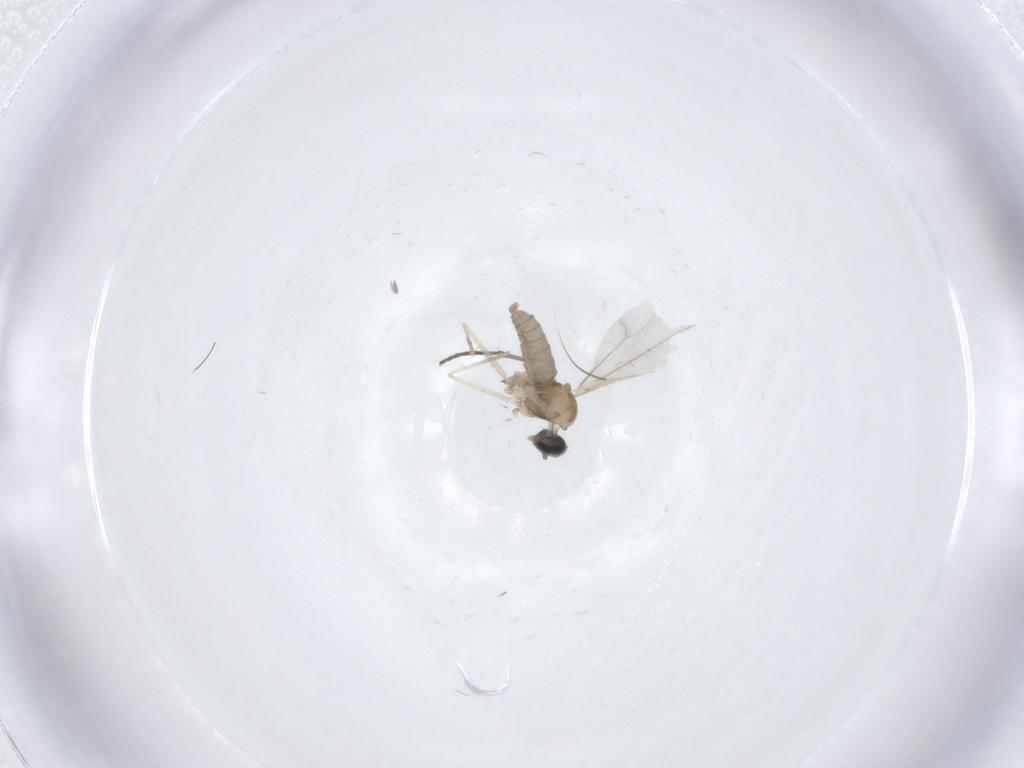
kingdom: Animalia
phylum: Arthropoda
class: Insecta
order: Diptera
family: Cecidomyiidae
